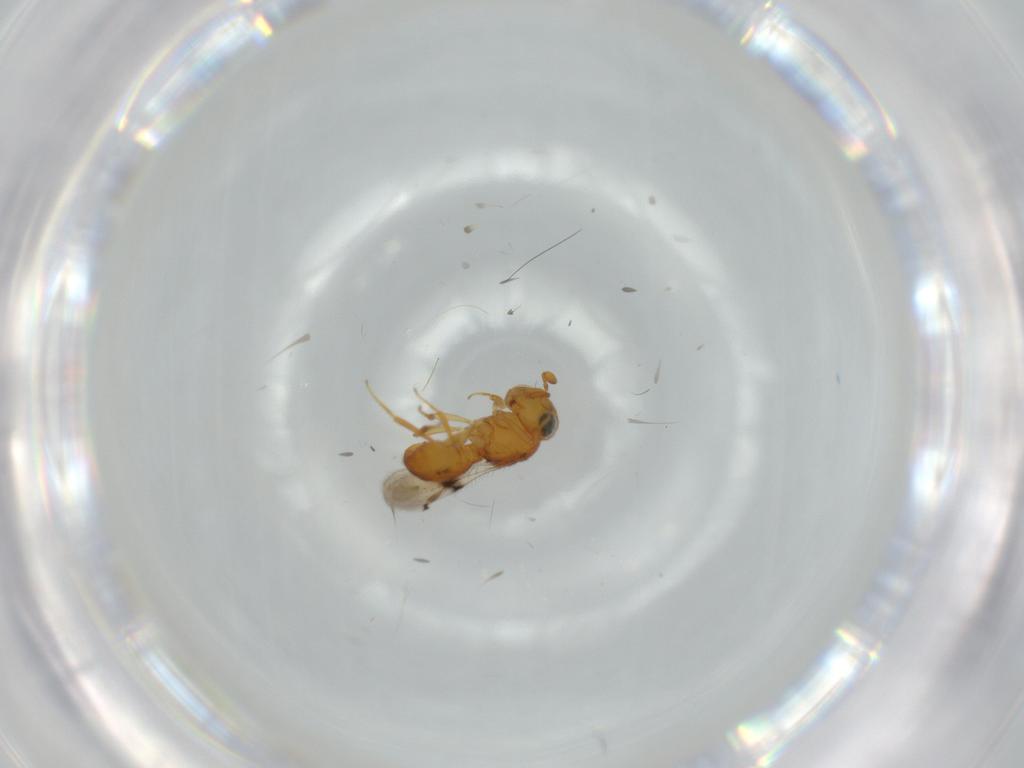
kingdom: Animalia
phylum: Arthropoda
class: Insecta
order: Hymenoptera
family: Scelionidae
